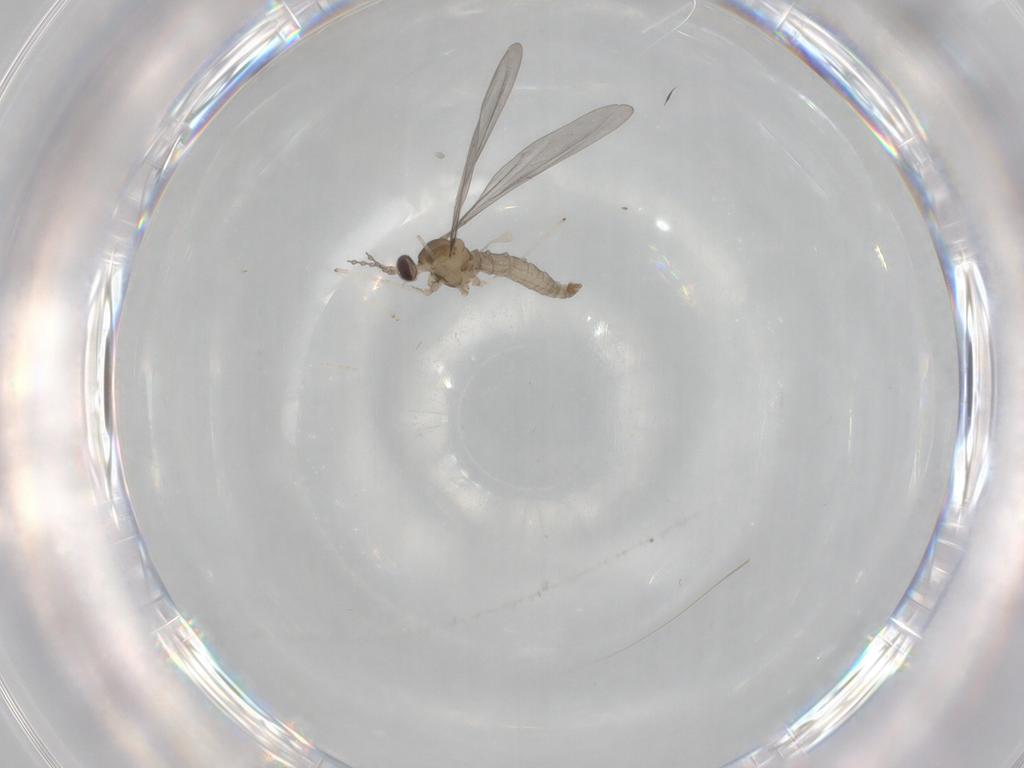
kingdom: Animalia
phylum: Arthropoda
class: Insecta
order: Diptera
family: Cecidomyiidae
